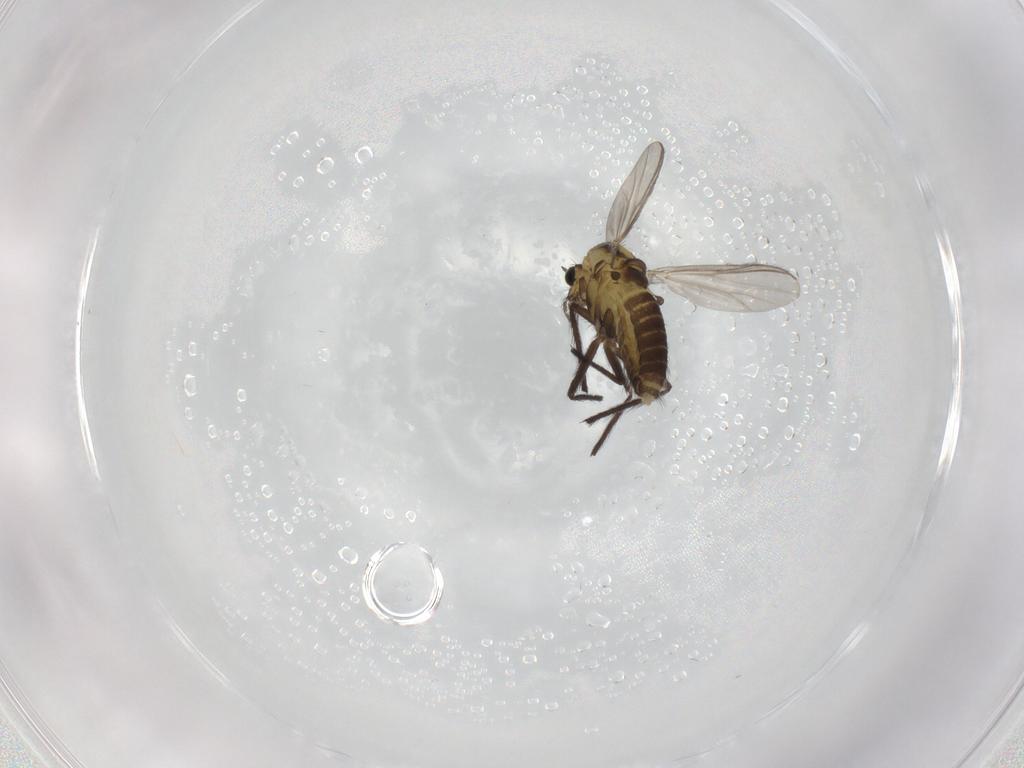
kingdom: Animalia
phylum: Arthropoda
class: Insecta
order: Diptera
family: Chironomidae
